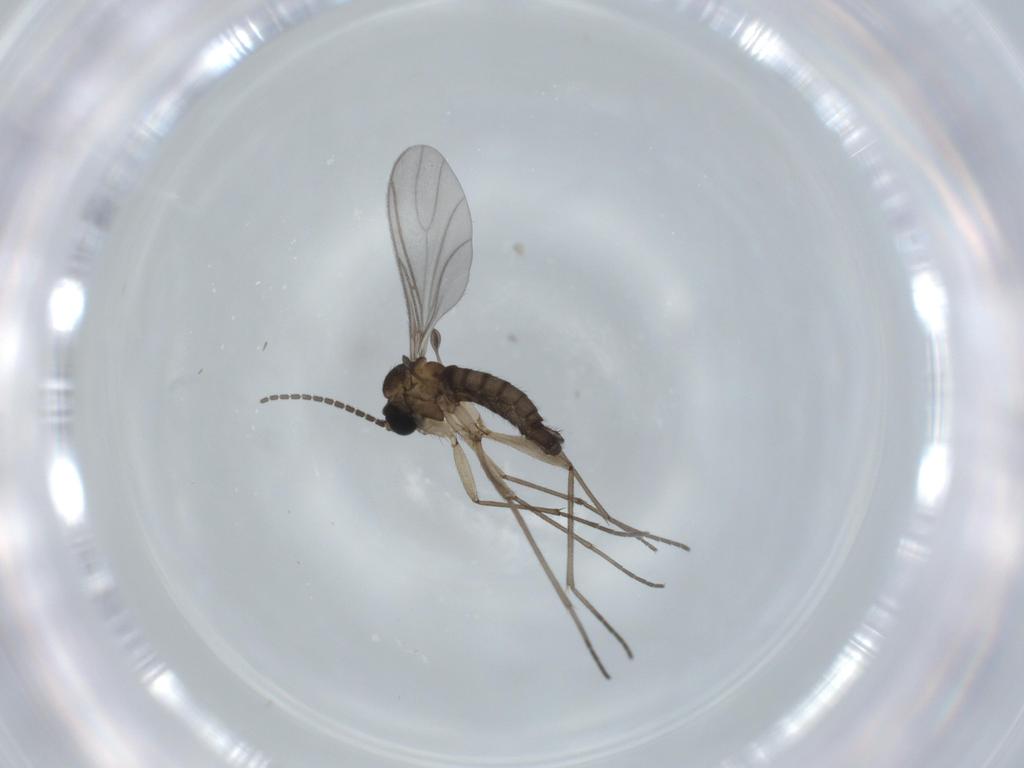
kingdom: Animalia
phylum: Arthropoda
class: Insecta
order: Diptera
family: Sciaridae
